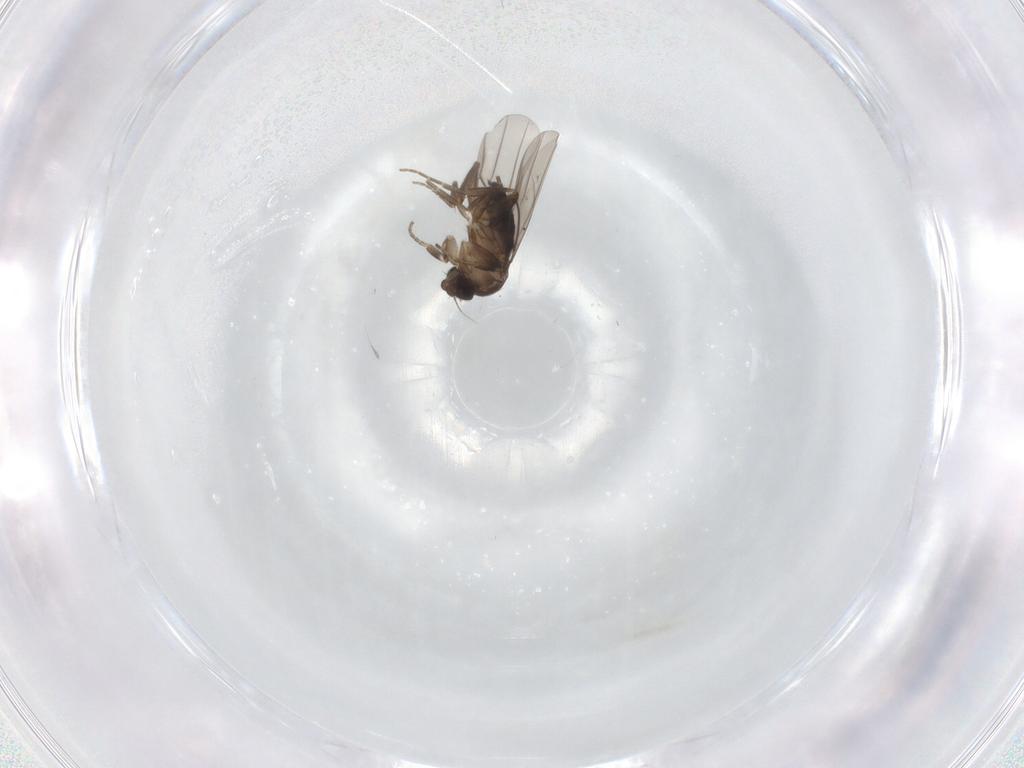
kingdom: Animalia
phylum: Arthropoda
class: Insecta
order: Diptera
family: Phoridae
